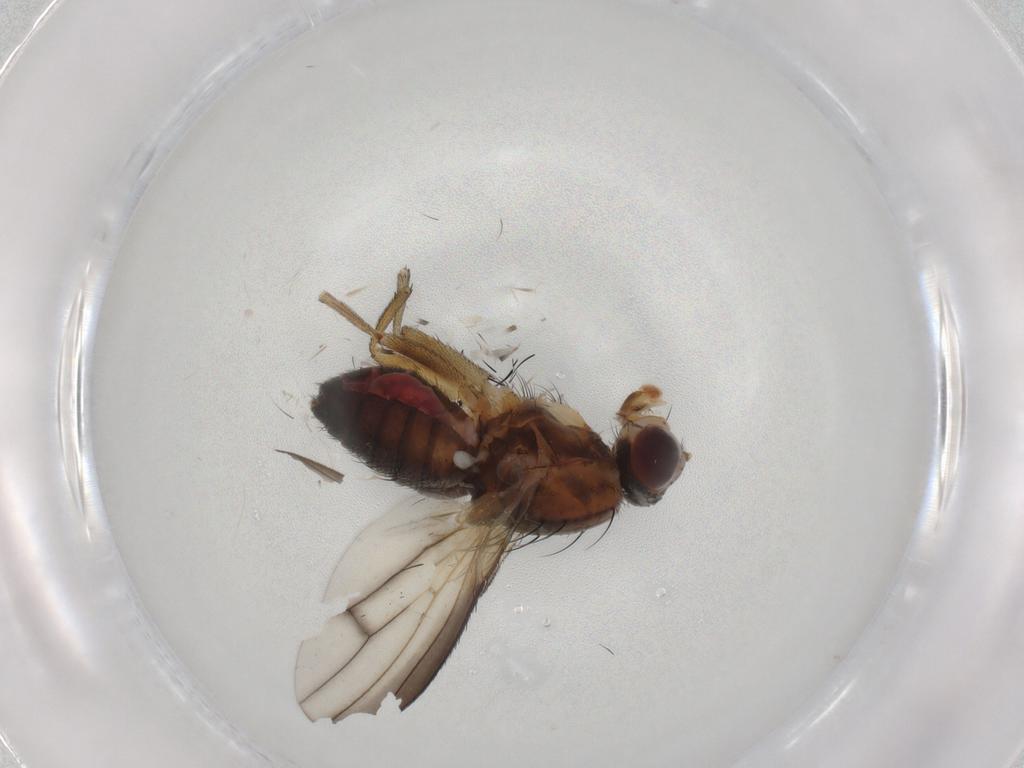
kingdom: Animalia
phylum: Arthropoda
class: Insecta
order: Diptera
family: Heleomyzidae
